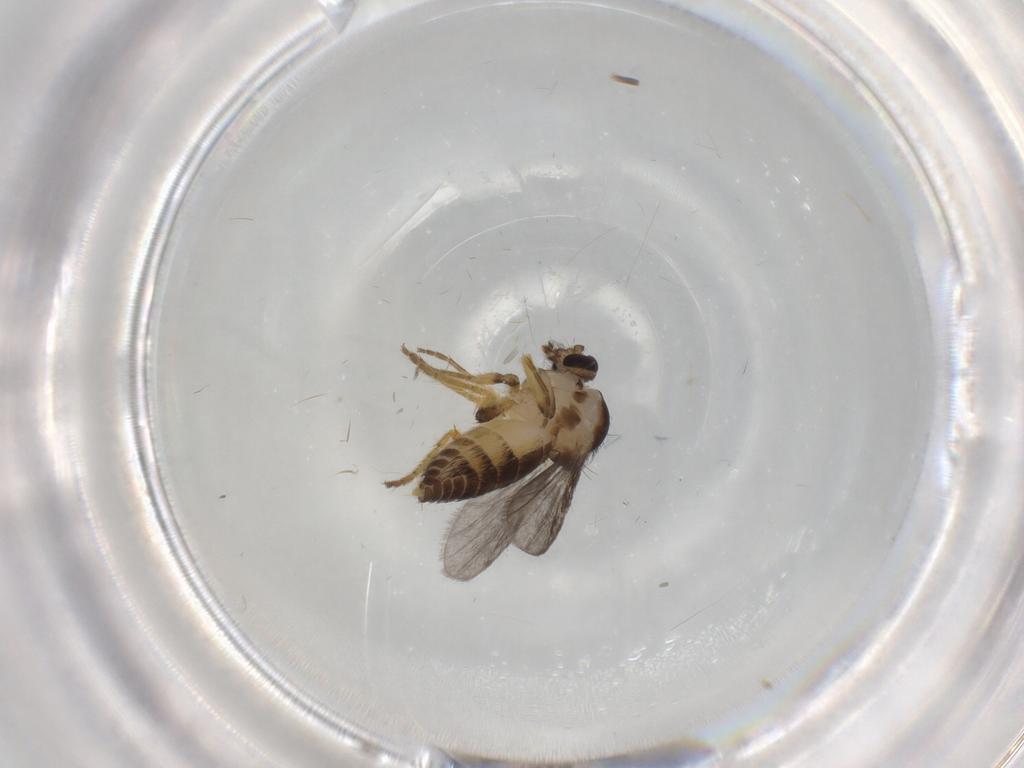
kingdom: Animalia
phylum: Arthropoda
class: Insecta
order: Diptera
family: Ceratopogonidae
